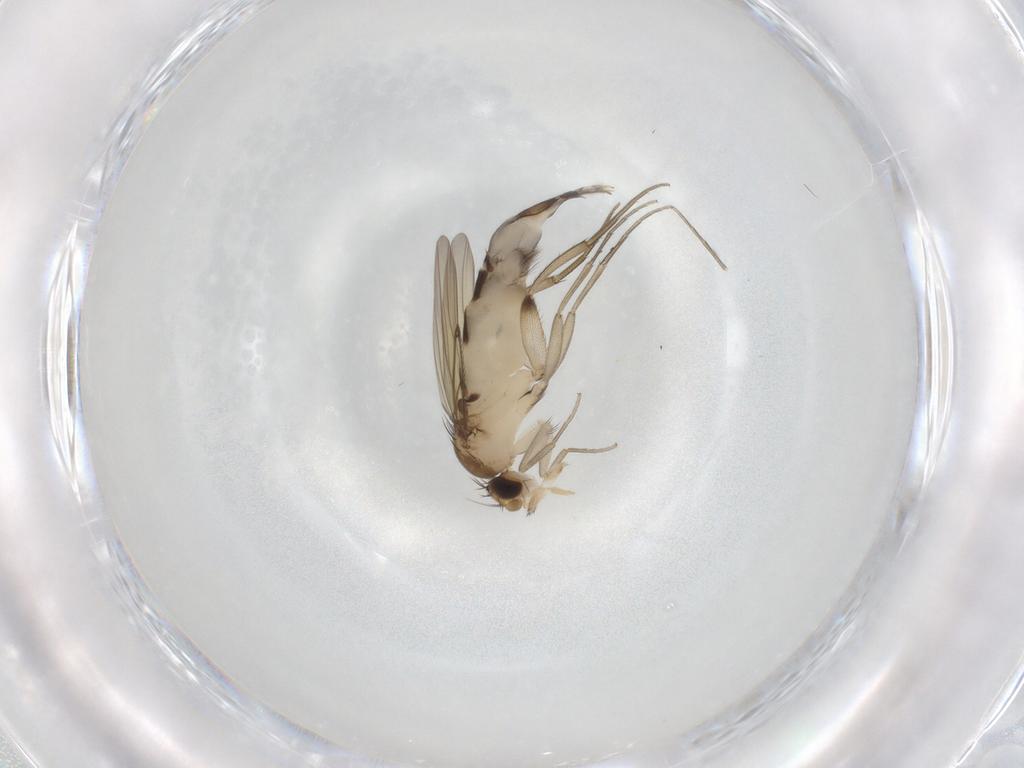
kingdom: Animalia
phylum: Arthropoda
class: Insecta
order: Diptera
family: Phoridae
